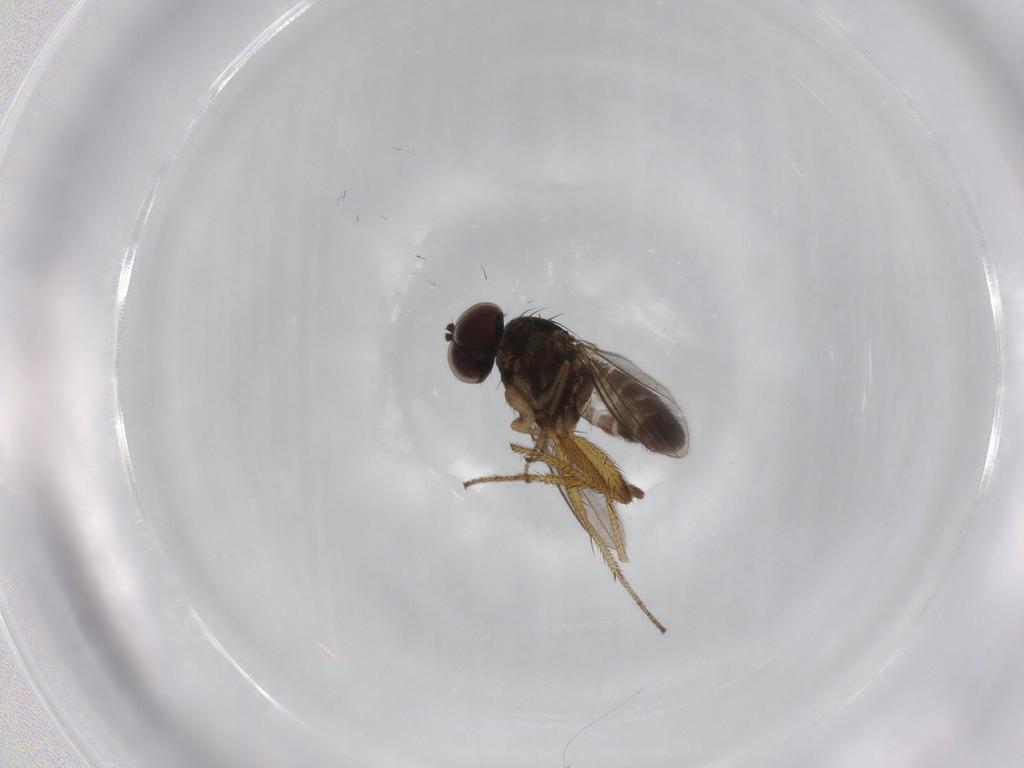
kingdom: Animalia
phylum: Arthropoda
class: Insecta
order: Diptera
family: Dolichopodidae
